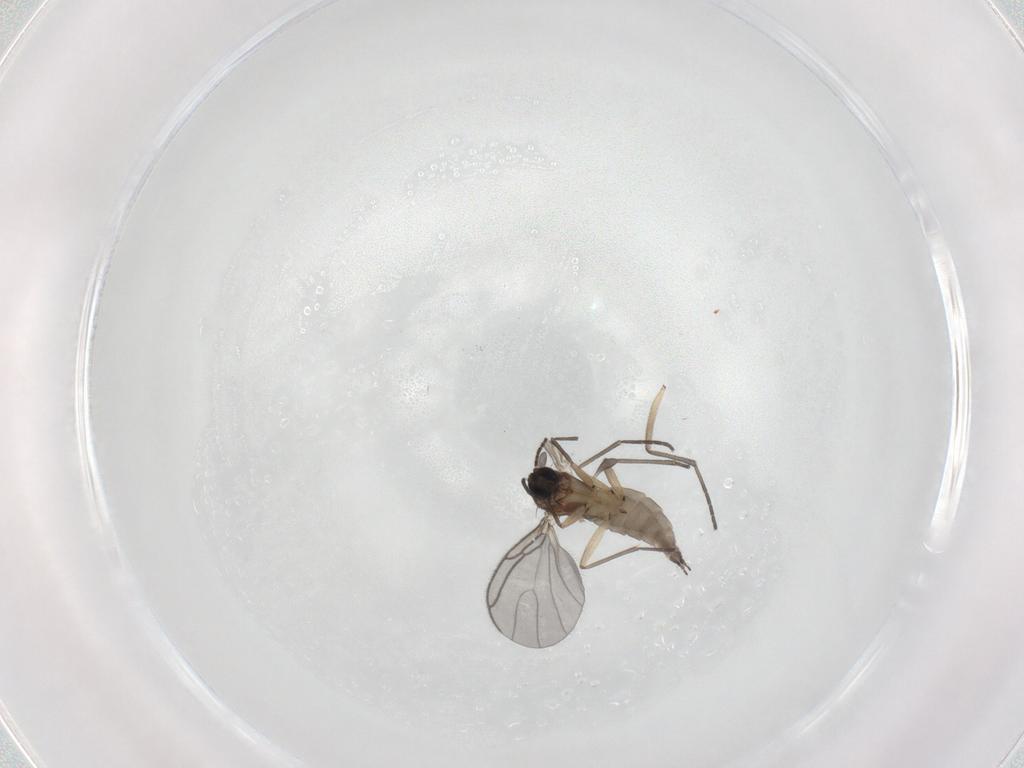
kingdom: Animalia
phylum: Arthropoda
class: Insecta
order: Diptera
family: Sciaridae
